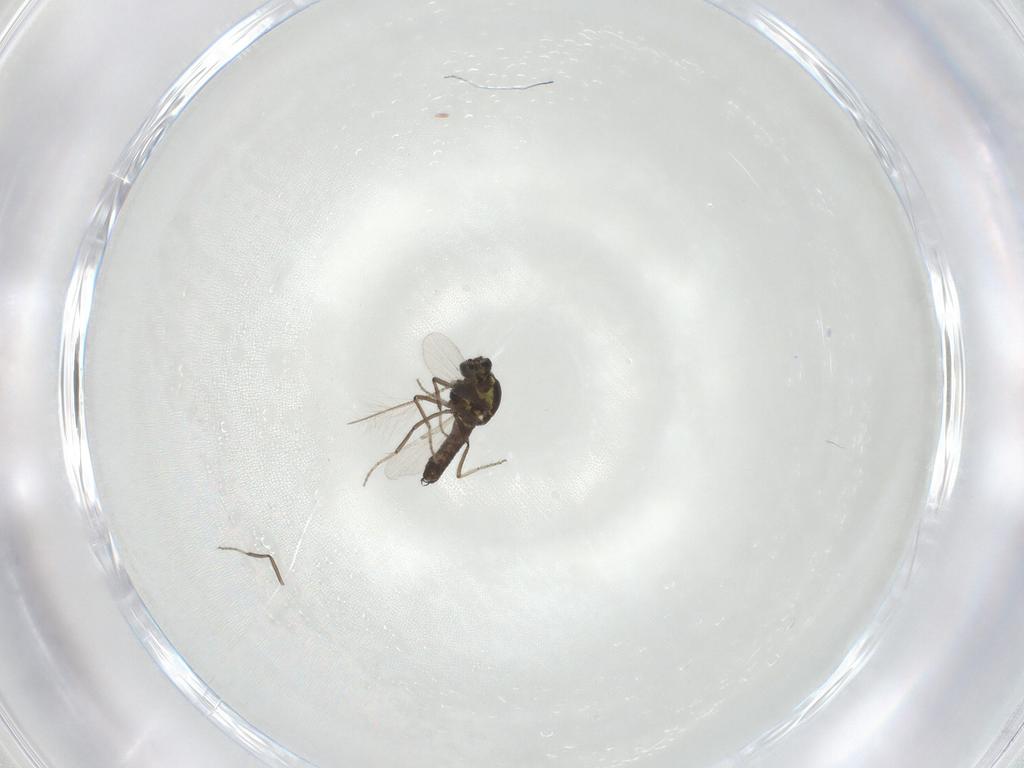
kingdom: Animalia
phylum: Arthropoda
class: Insecta
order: Diptera
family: Ceratopogonidae
